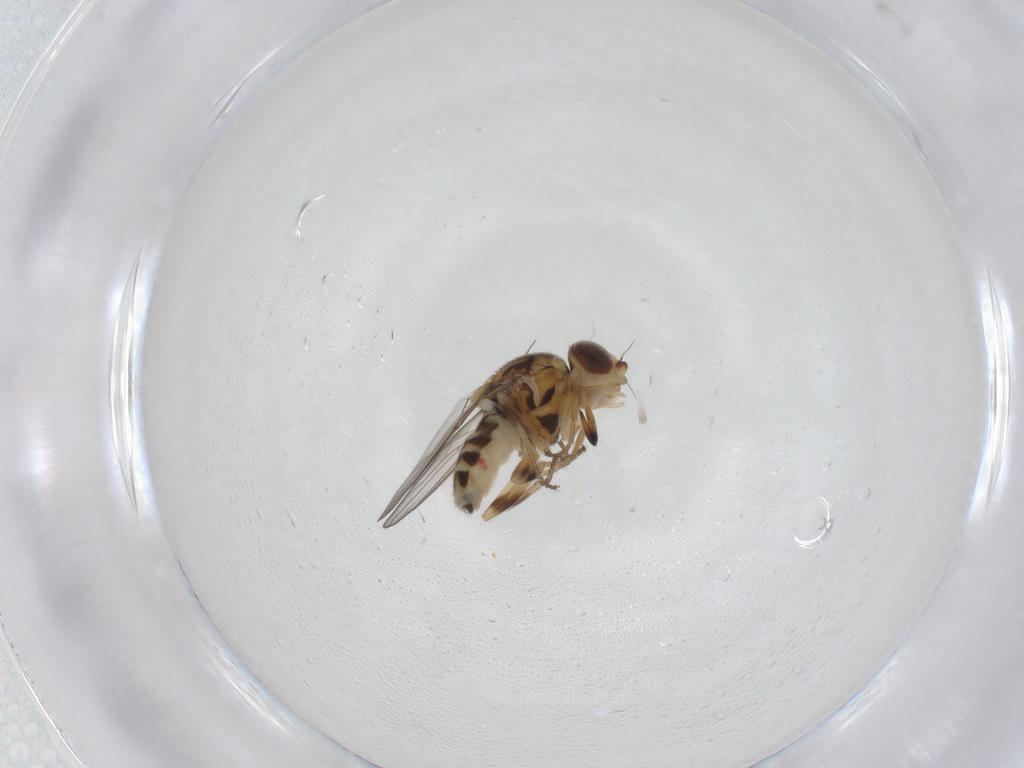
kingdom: Animalia
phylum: Arthropoda
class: Insecta
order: Diptera
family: Chloropidae
